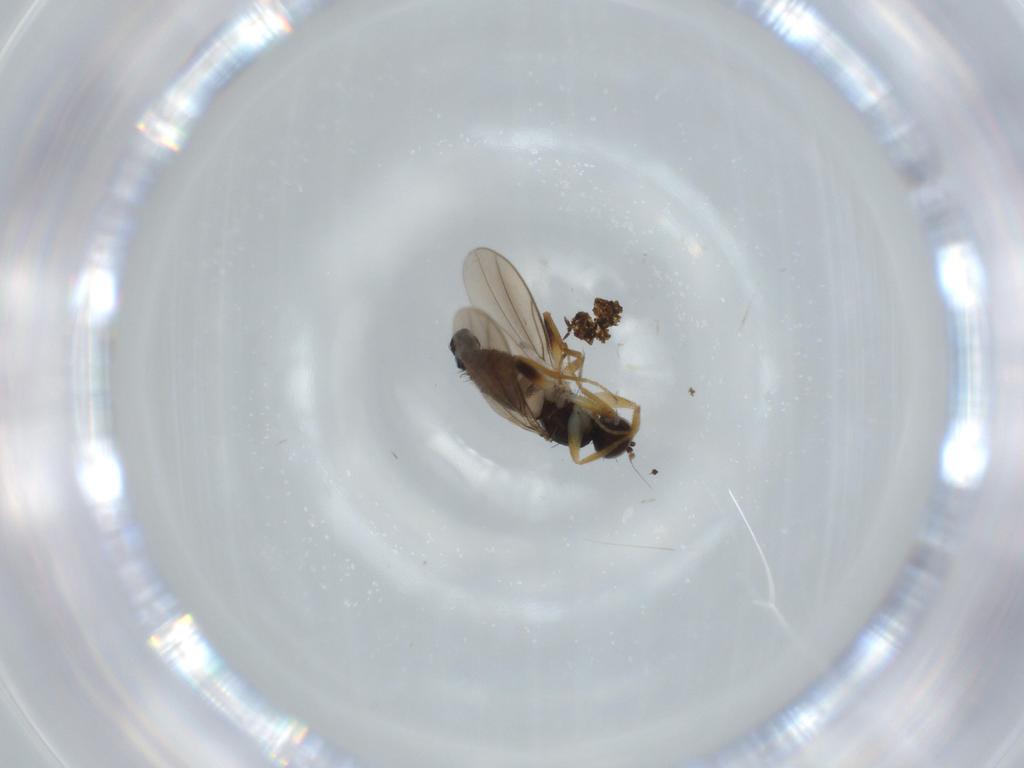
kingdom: Animalia
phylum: Arthropoda
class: Insecta
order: Diptera
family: Hybotidae
